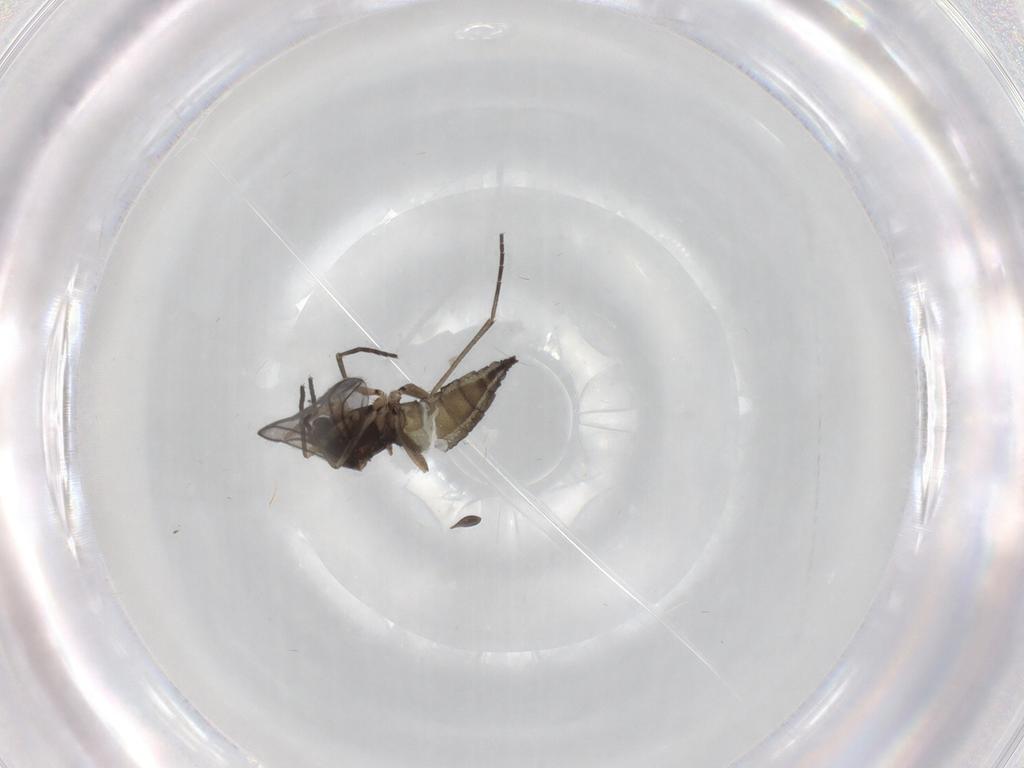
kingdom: Animalia
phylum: Arthropoda
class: Insecta
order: Diptera
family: Sciaridae
